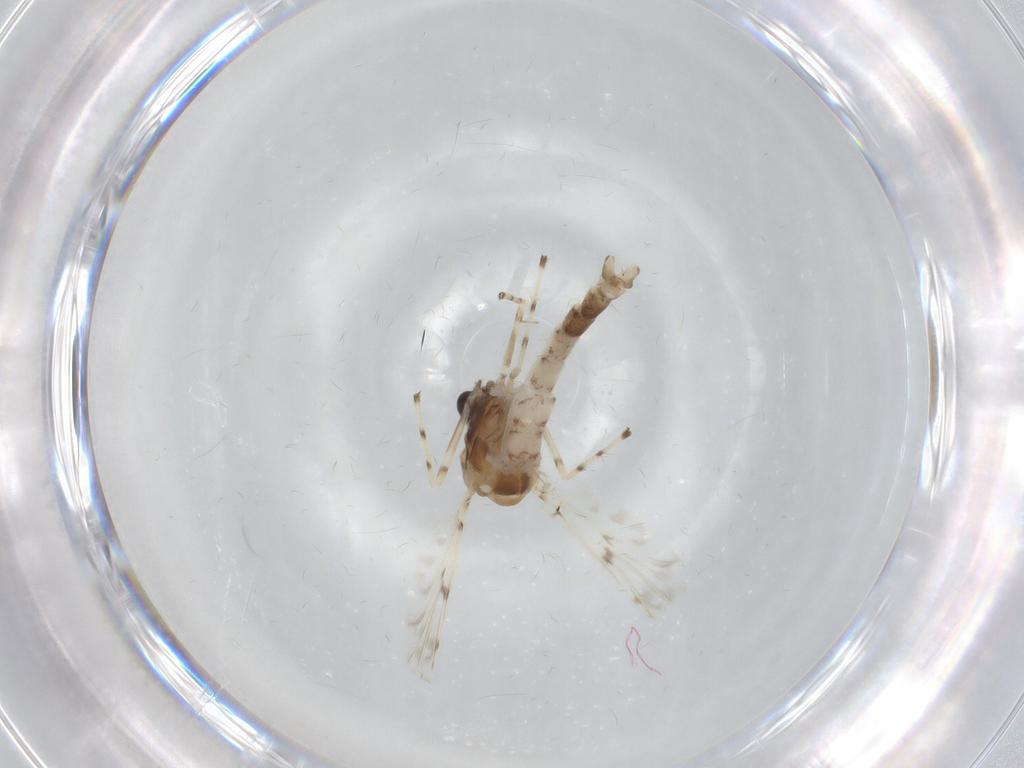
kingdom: Animalia
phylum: Arthropoda
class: Insecta
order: Diptera
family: Chironomidae
